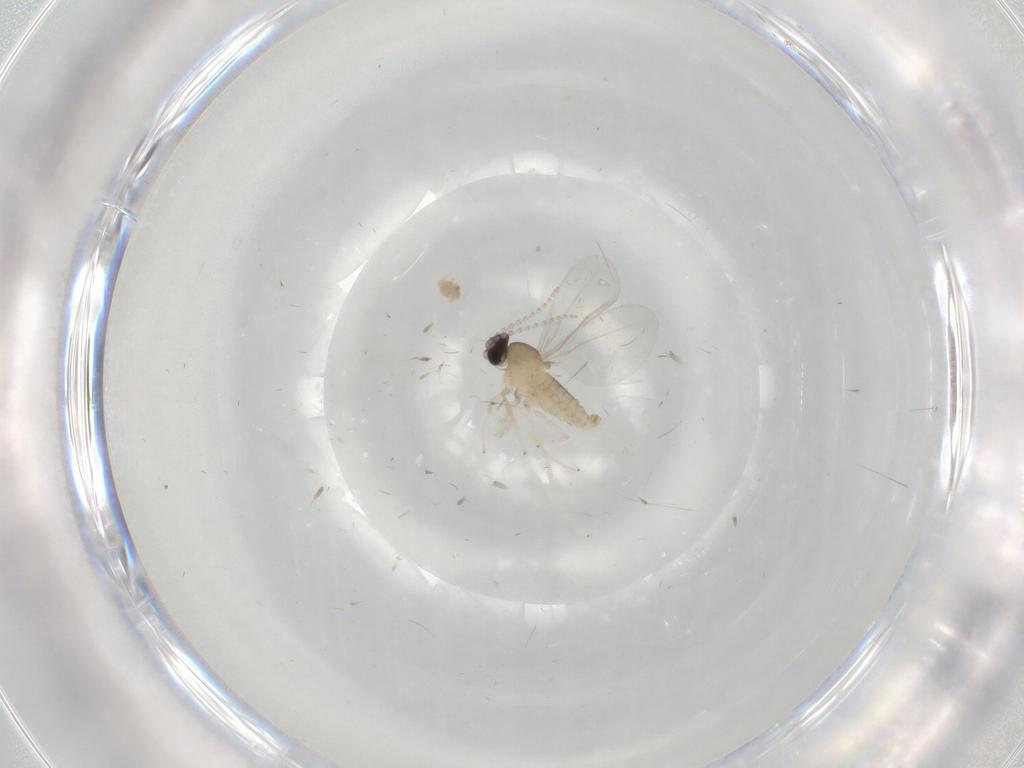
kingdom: Animalia
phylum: Arthropoda
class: Insecta
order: Diptera
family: Cecidomyiidae
